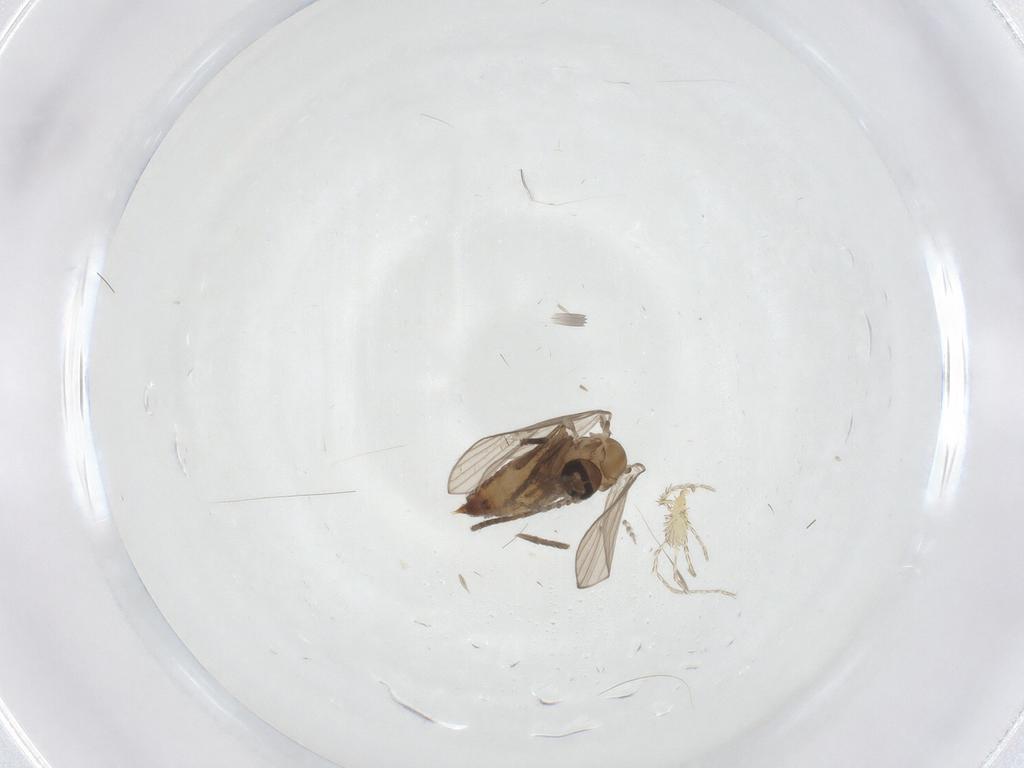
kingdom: Animalia
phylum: Arthropoda
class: Insecta
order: Diptera
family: Psychodidae
